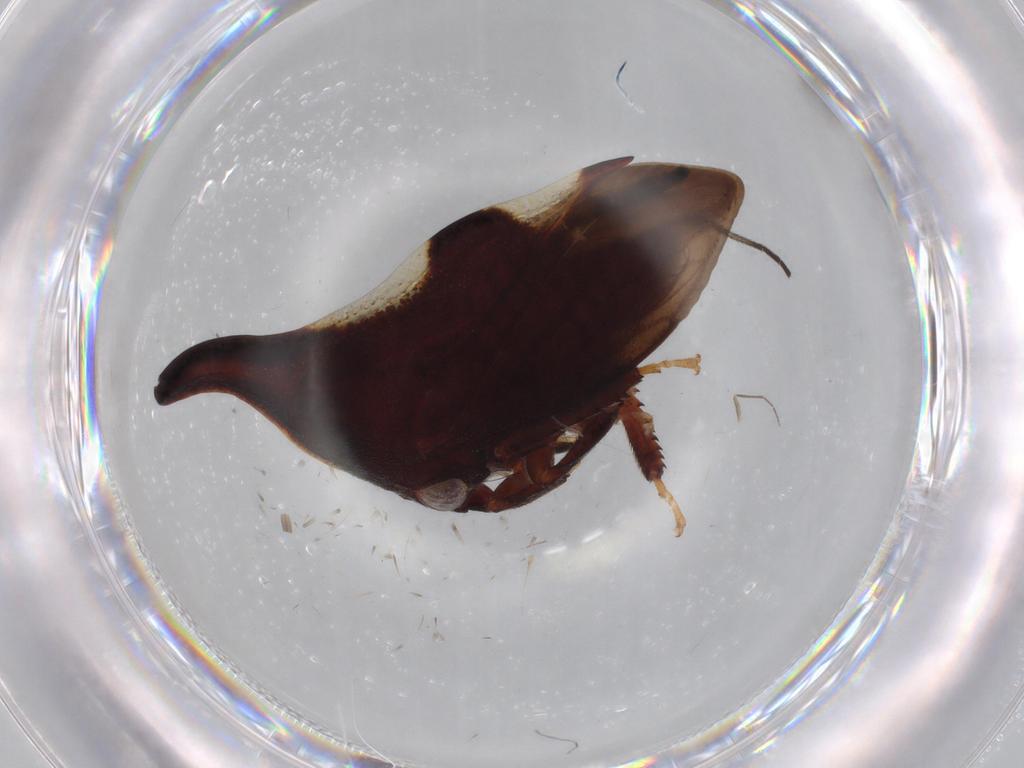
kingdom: Animalia
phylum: Arthropoda
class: Insecta
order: Hemiptera
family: Membracidae
